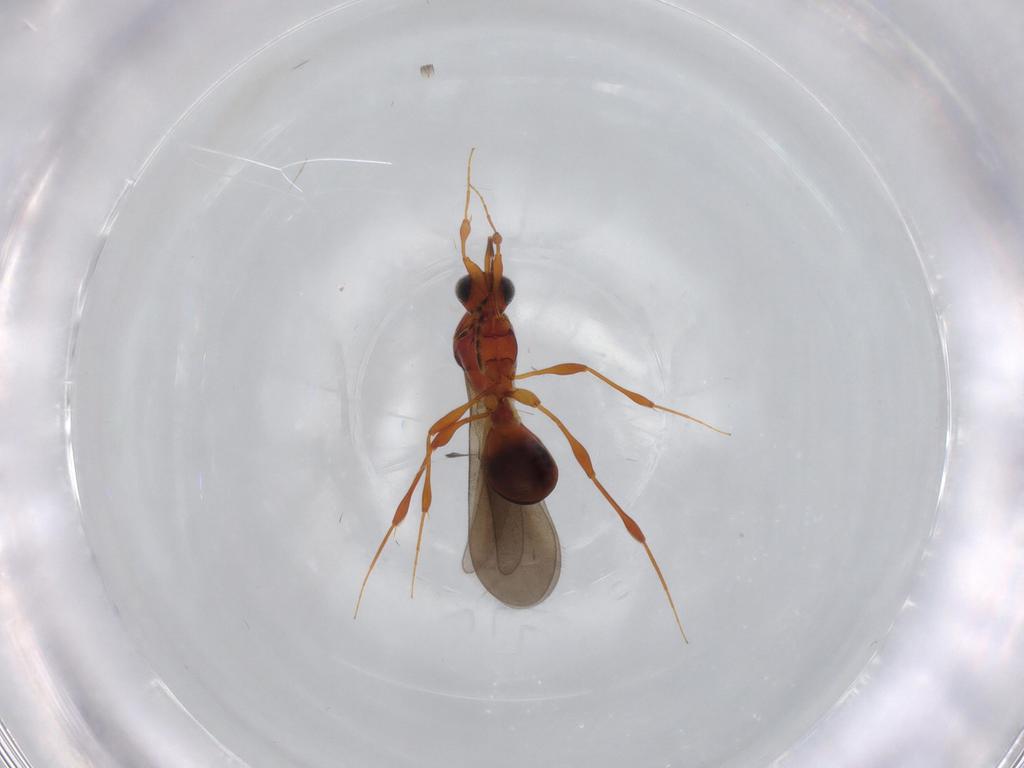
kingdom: Animalia
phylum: Arthropoda
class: Insecta
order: Hymenoptera
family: Platygastridae
